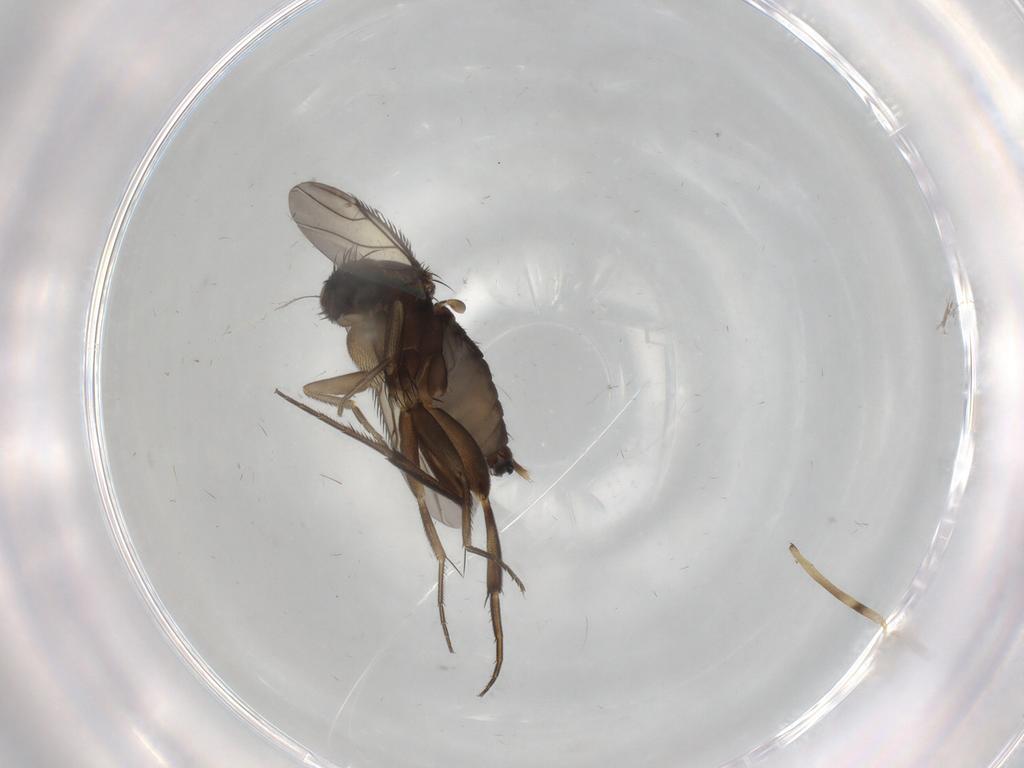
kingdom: Animalia
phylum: Arthropoda
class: Insecta
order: Diptera
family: Phoridae
